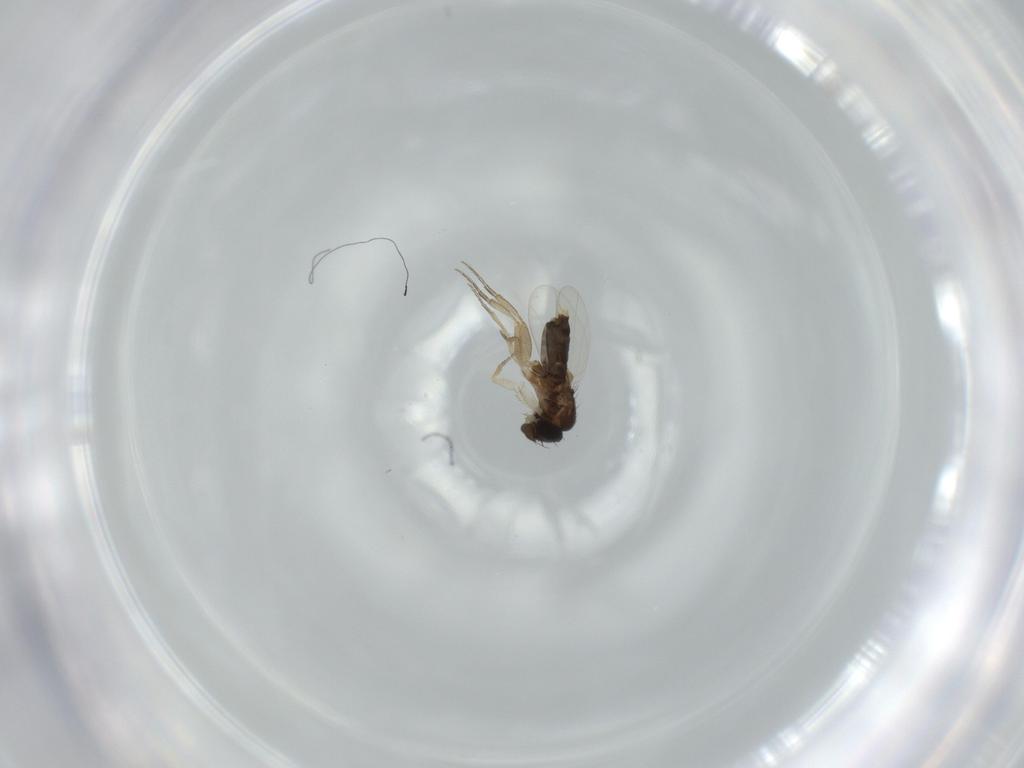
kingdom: Animalia
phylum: Arthropoda
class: Insecta
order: Diptera
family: Phoridae
